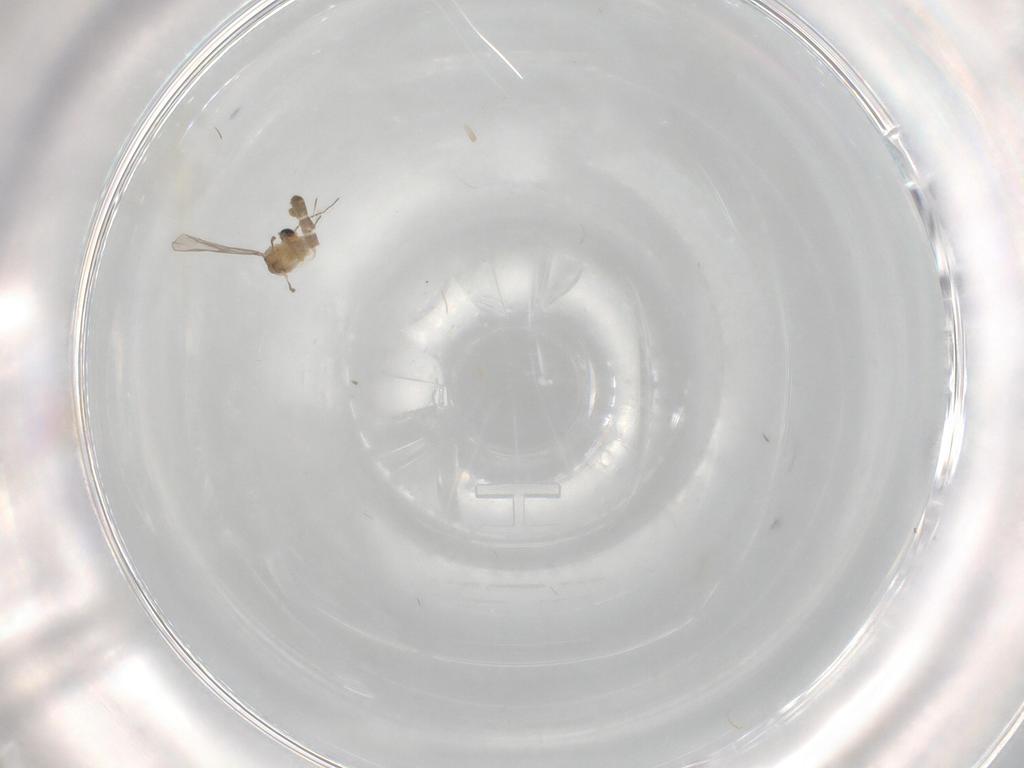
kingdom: Animalia
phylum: Arthropoda
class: Insecta
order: Diptera
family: Chironomidae
